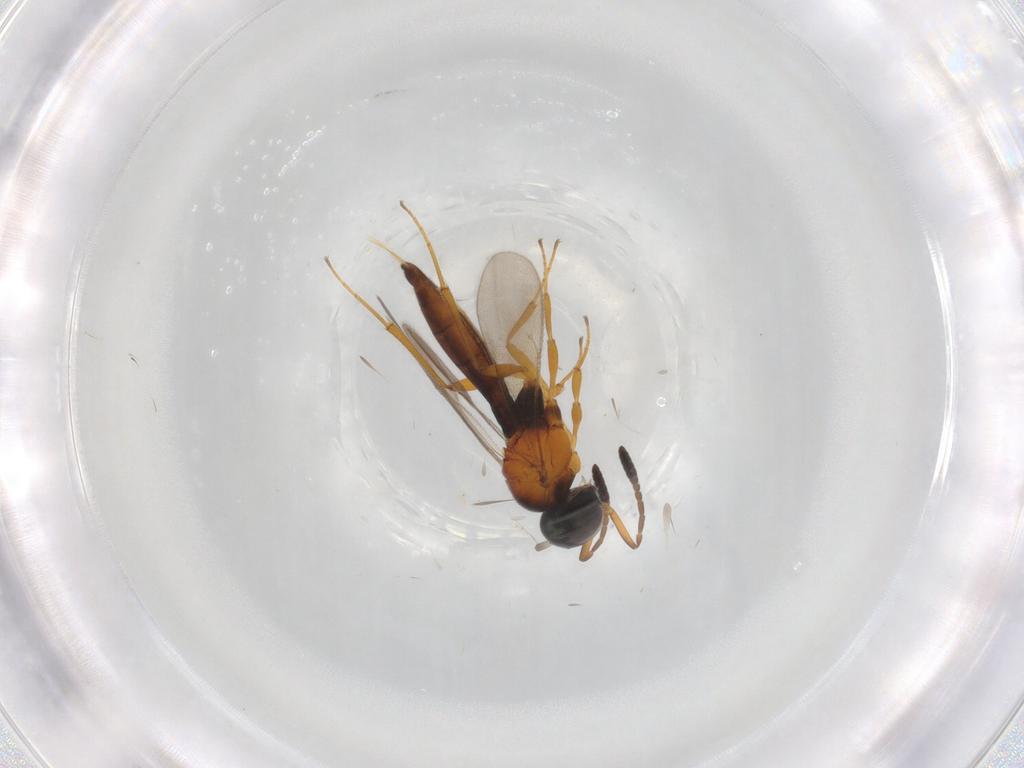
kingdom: Animalia
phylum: Arthropoda
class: Insecta
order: Hymenoptera
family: Scelionidae
